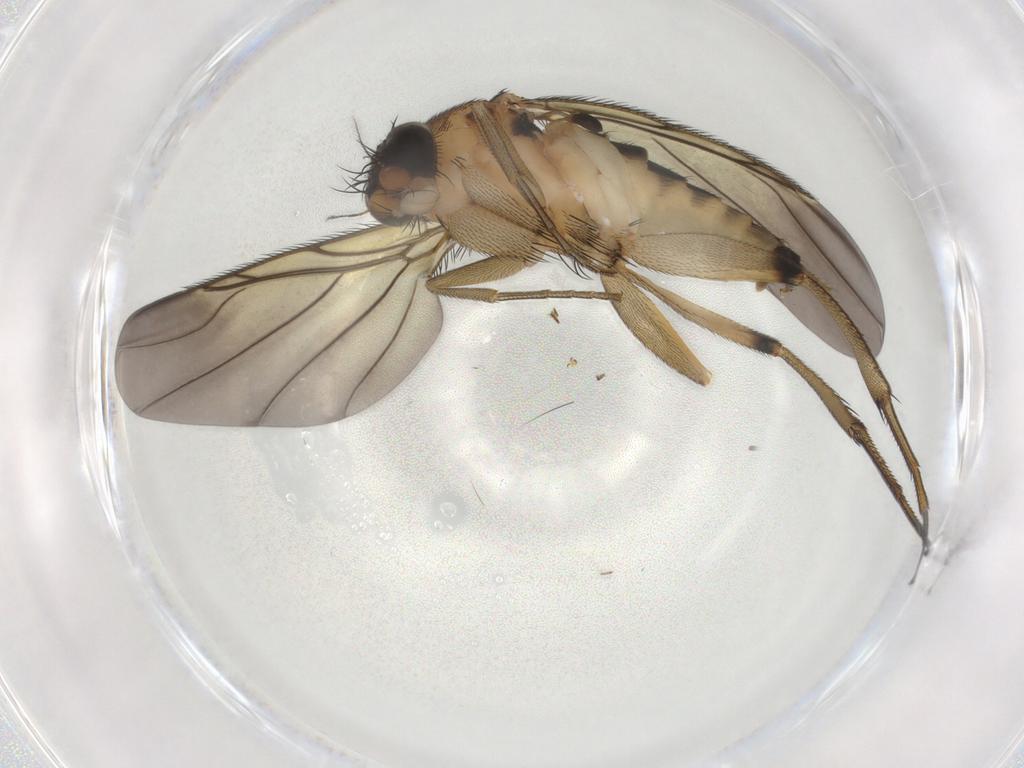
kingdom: Animalia
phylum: Arthropoda
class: Insecta
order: Diptera
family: Phoridae
